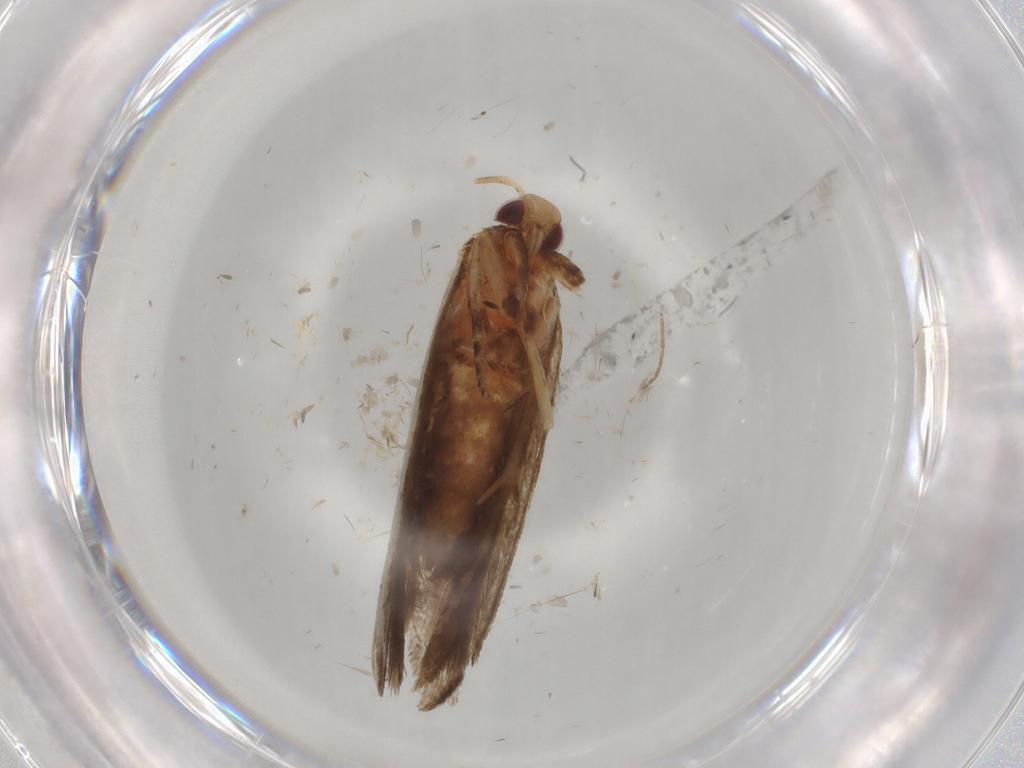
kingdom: Animalia
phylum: Arthropoda
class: Insecta
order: Lepidoptera
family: Gelechiidae
